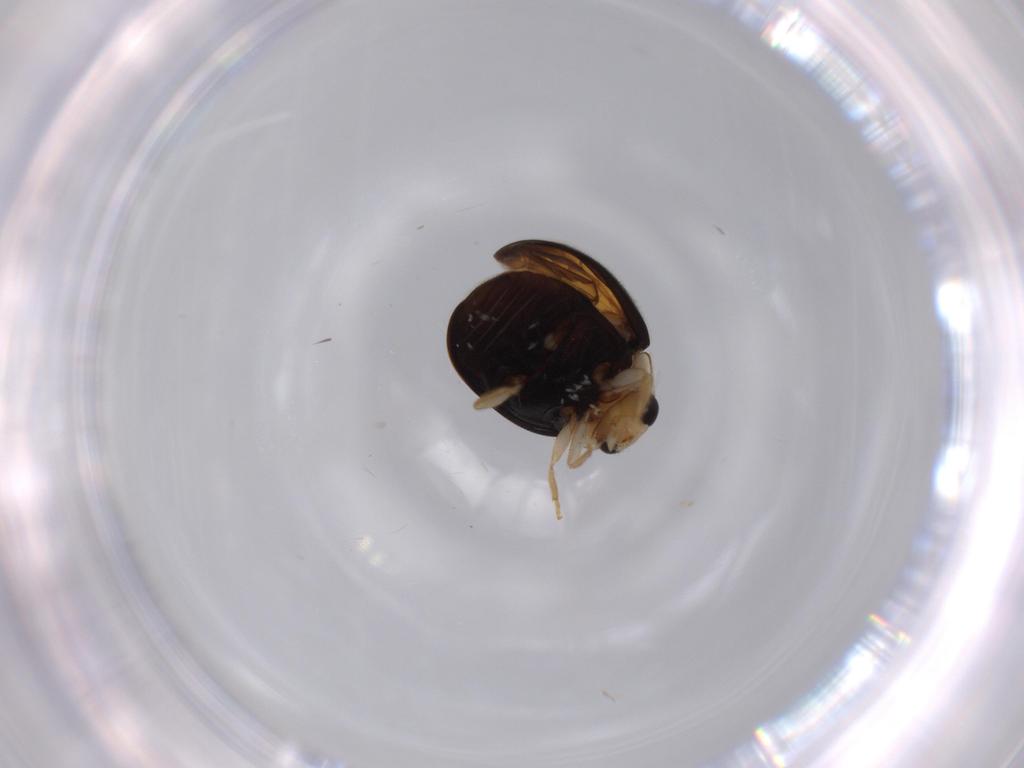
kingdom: Animalia
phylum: Arthropoda
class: Insecta
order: Coleoptera
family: Coccinellidae
